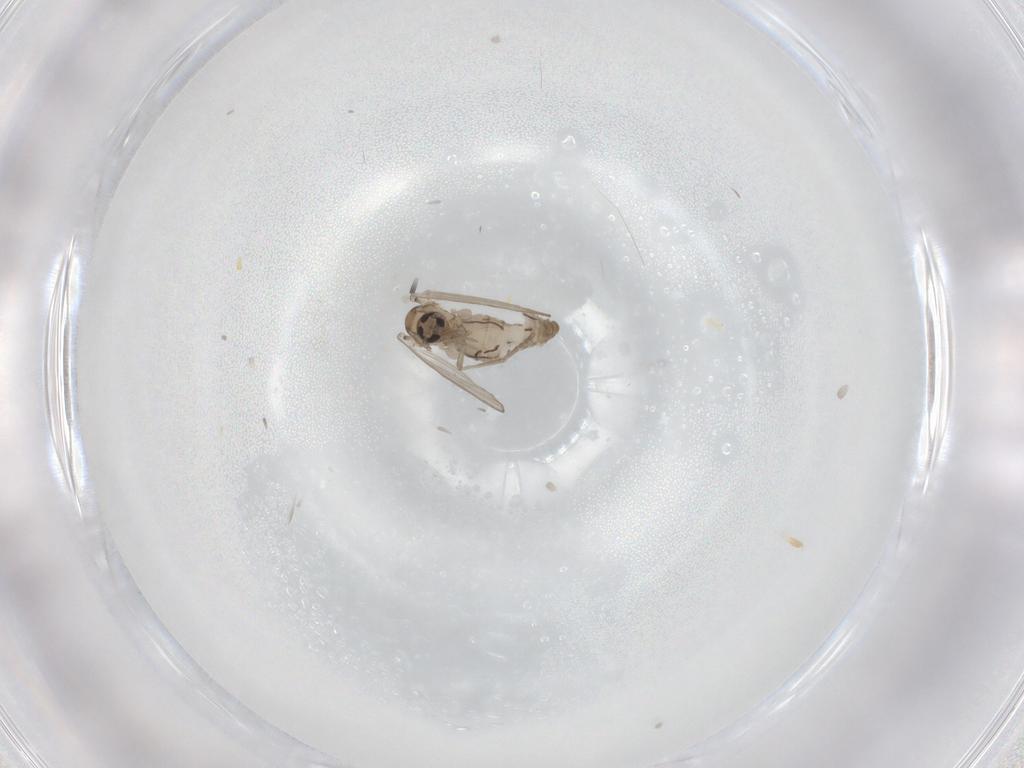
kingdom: Animalia
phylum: Arthropoda
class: Insecta
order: Diptera
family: Psychodidae
